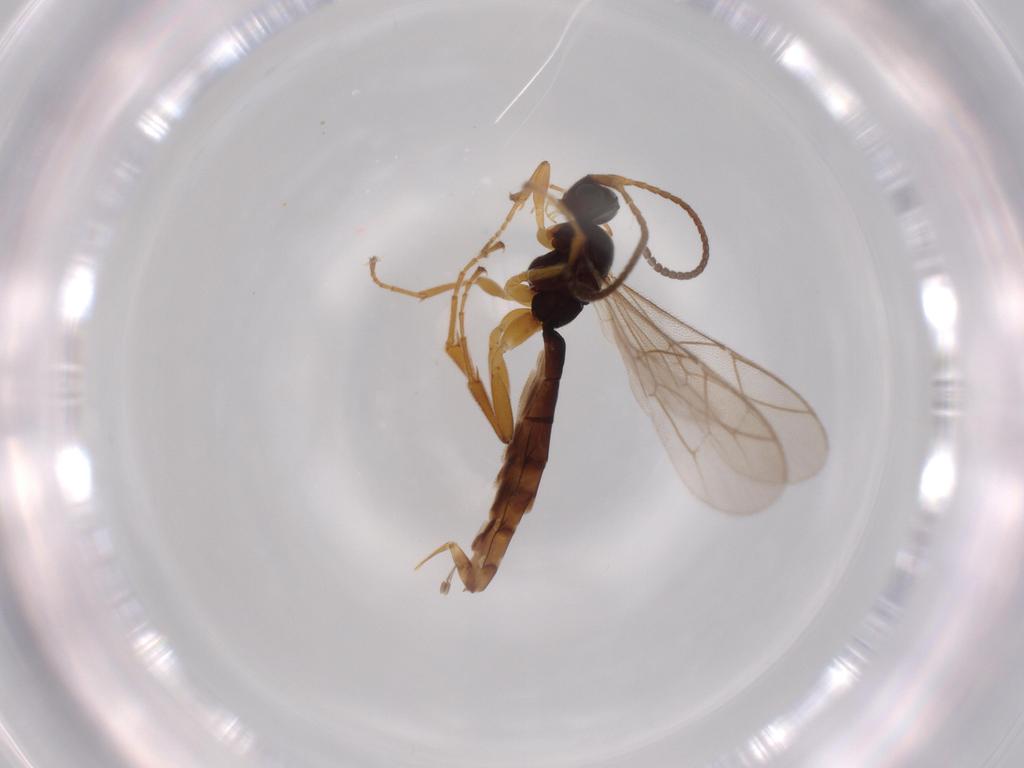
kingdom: Animalia
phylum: Arthropoda
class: Insecta
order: Hymenoptera
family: Ichneumonidae
